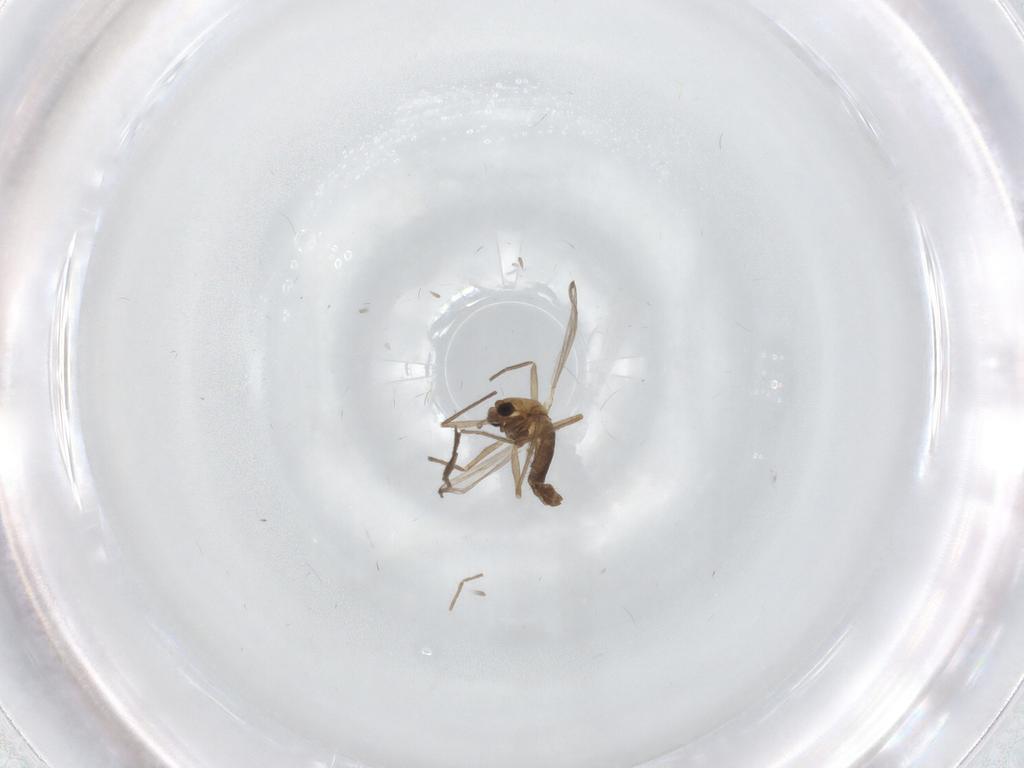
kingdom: Animalia
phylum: Arthropoda
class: Insecta
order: Diptera
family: Chironomidae
